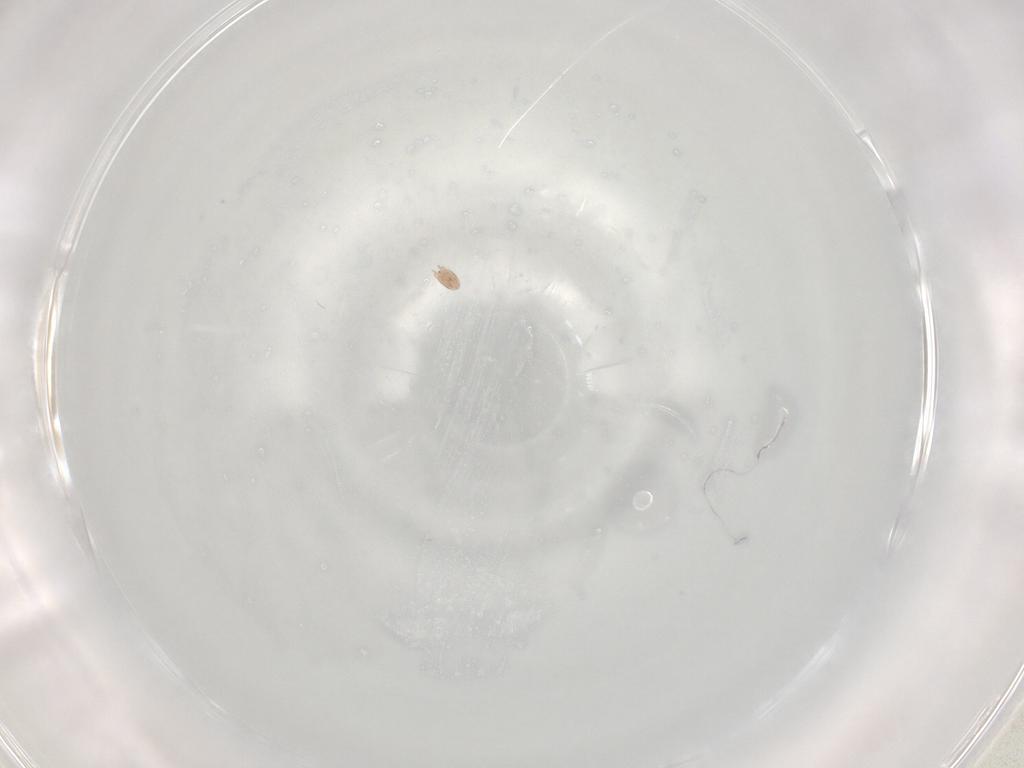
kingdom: Animalia
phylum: Arthropoda
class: Arachnida
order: Sarcoptiformes
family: Hemisarcoptidae
